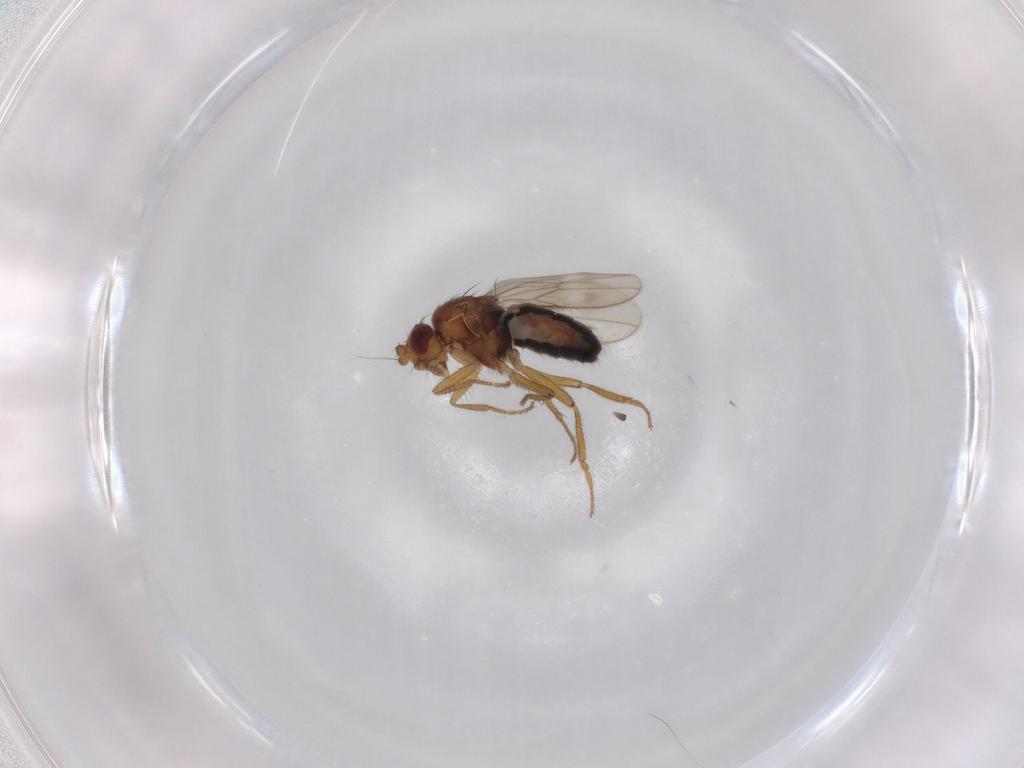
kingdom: Animalia
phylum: Arthropoda
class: Insecta
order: Diptera
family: Sphaeroceridae
